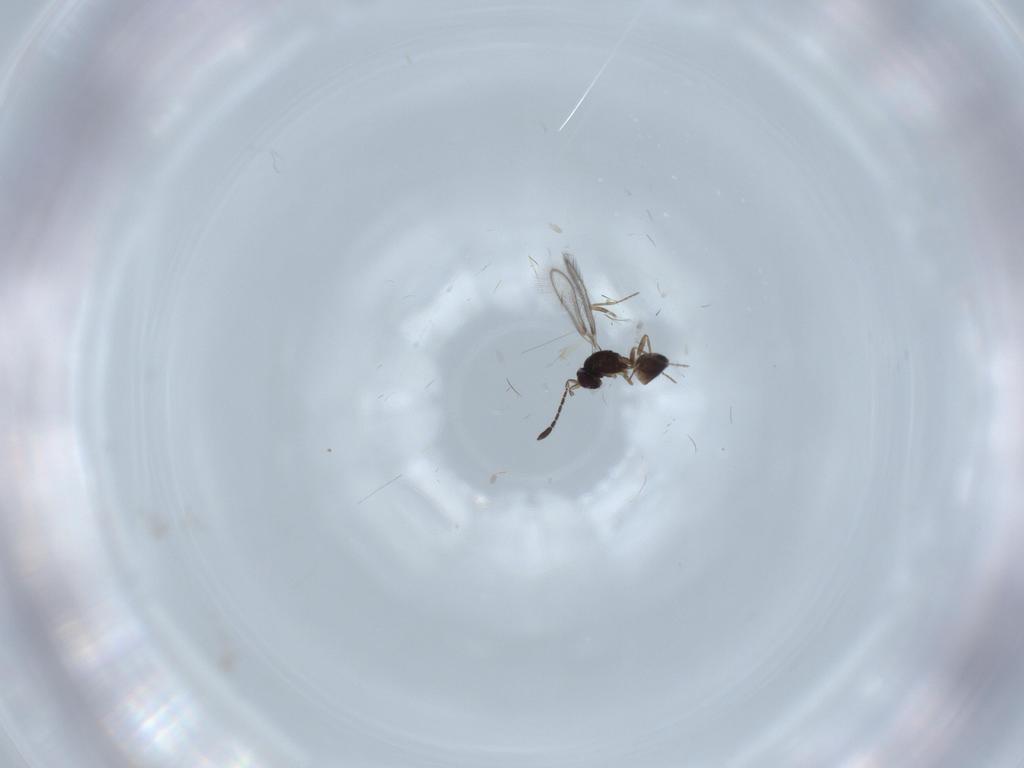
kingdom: Animalia
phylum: Arthropoda
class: Insecta
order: Hymenoptera
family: Mymaridae
